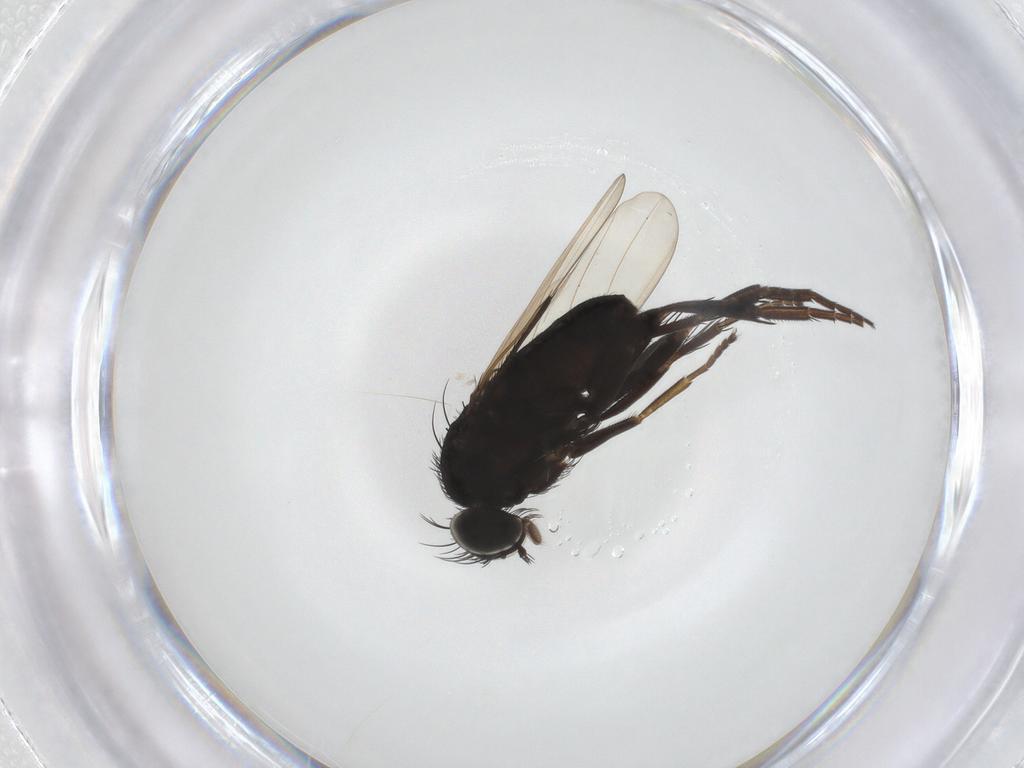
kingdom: Animalia
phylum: Arthropoda
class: Insecta
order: Diptera
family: Phoridae
